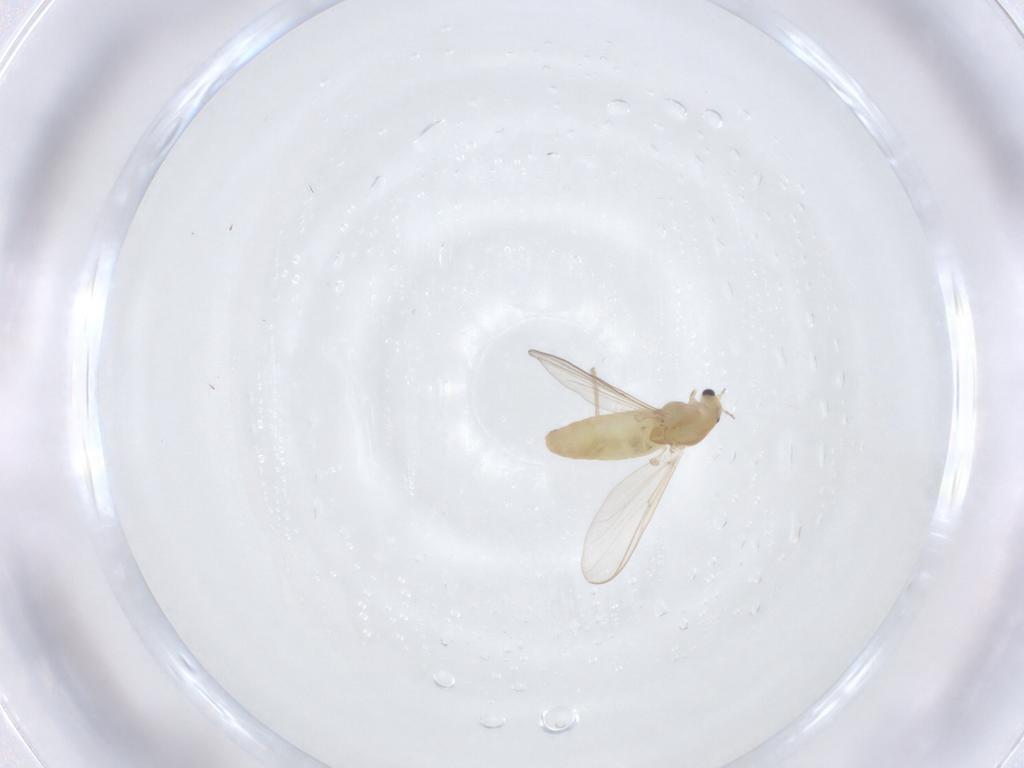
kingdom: Animalia
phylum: Arthropoda
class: Insecta
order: Diptera
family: Chironomidae
